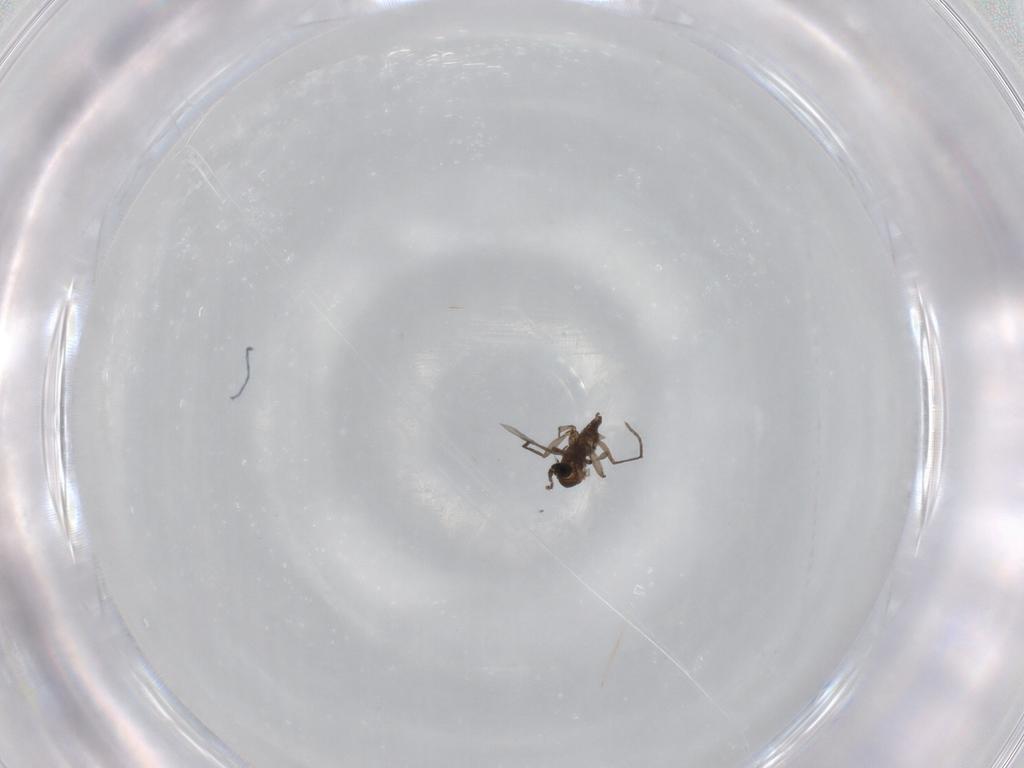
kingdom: Animalia
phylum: Arthropoda
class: Insecta
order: Diptera
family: Sciaridae
